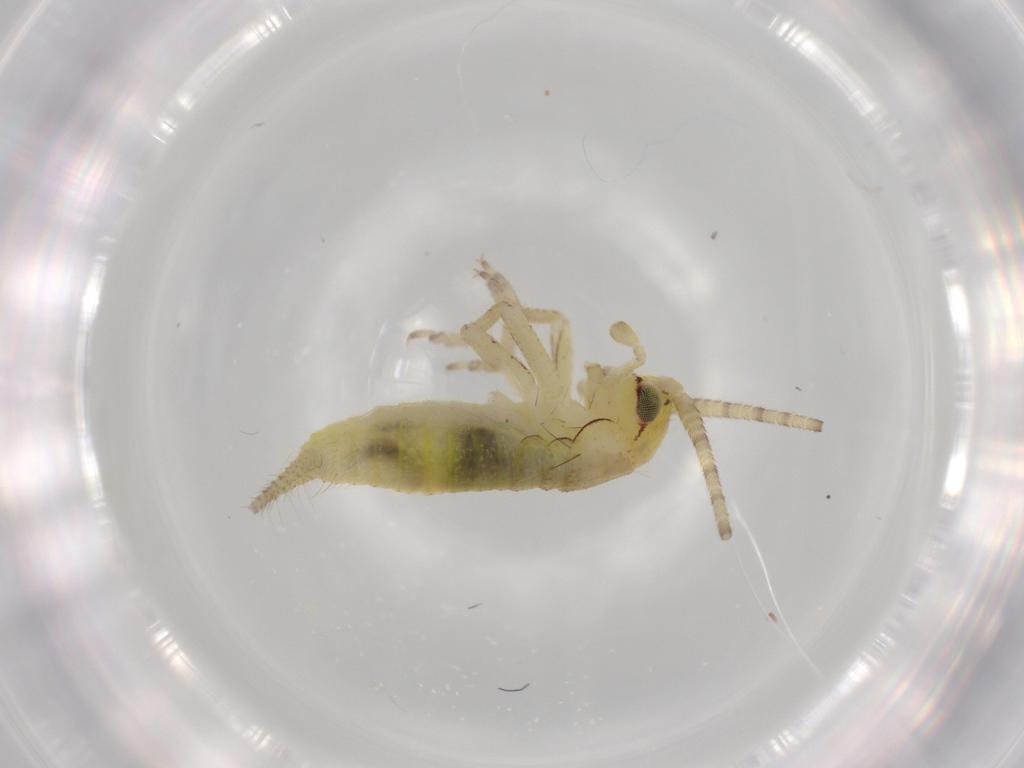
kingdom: Animalia
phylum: Arthropoda
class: Insecta
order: Orthoptera
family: Gryllidae
